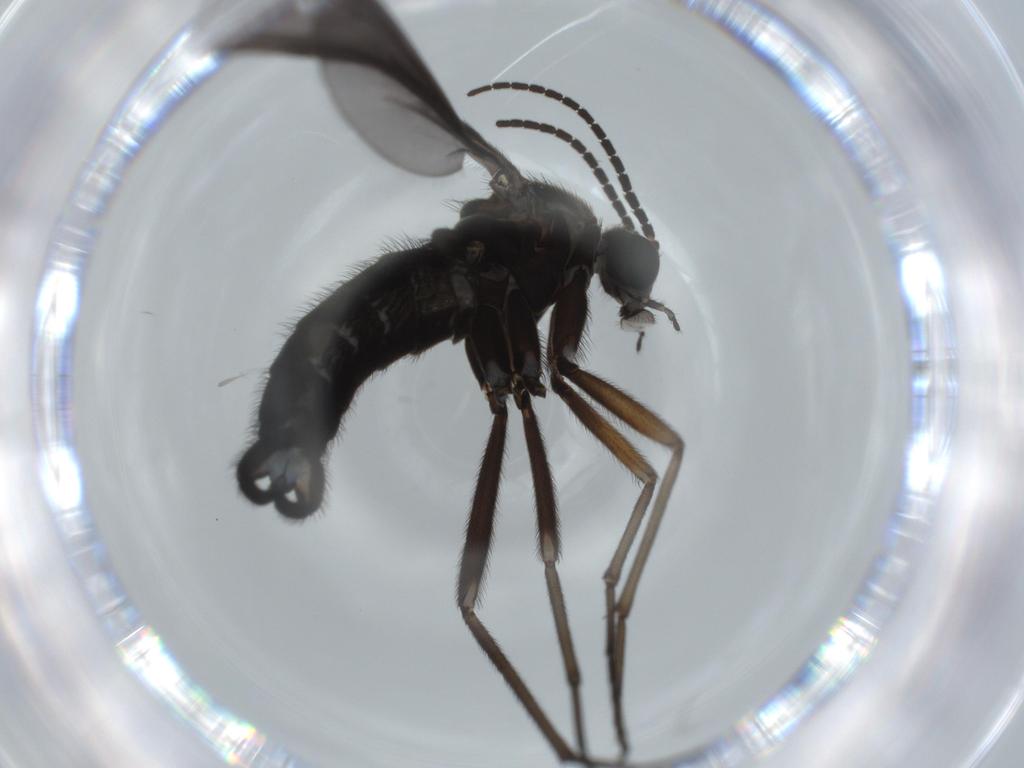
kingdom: Animalia
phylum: Arthropoda
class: Insecta
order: Diptera
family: Sciaridae
